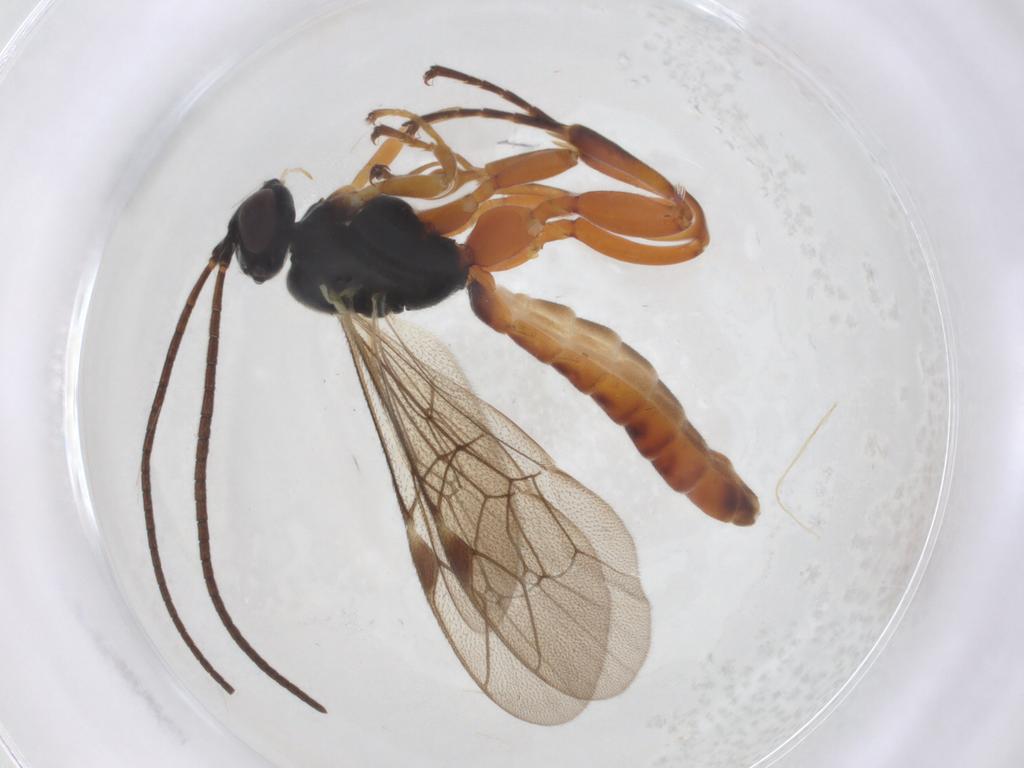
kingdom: Animalia
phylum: Arthropoda
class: Insecta
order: Hymenoptera
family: Ichneumonidae
